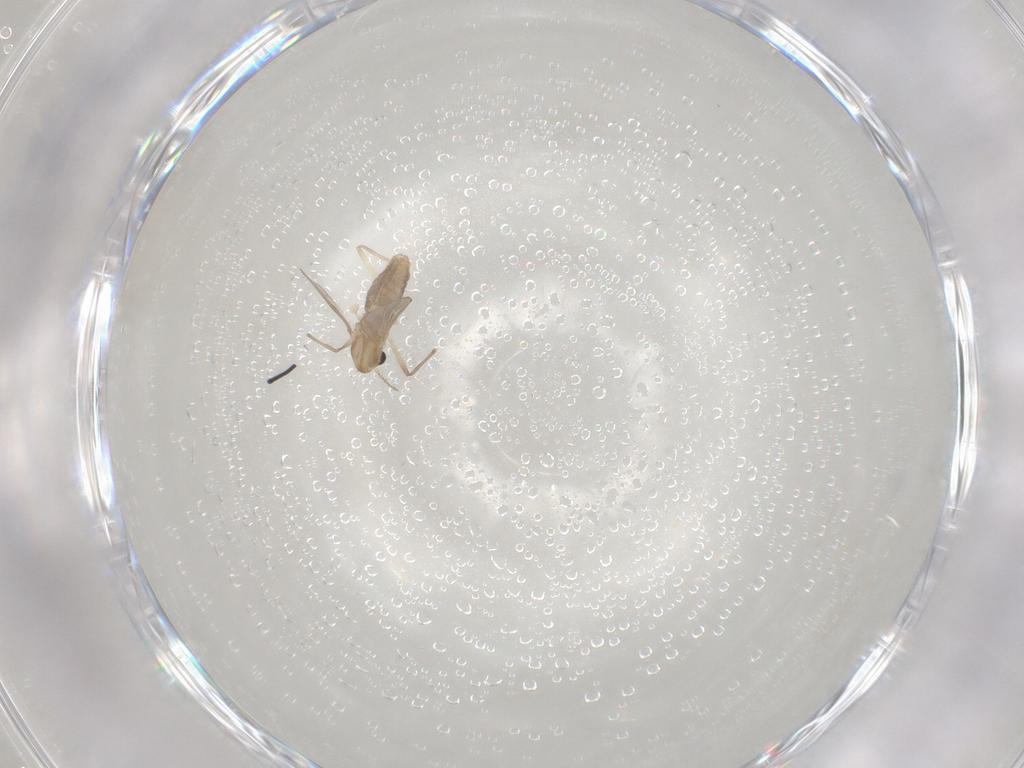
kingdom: Animalia
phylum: Arthropoda
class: Insecta
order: Diptera
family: Chironomidae
